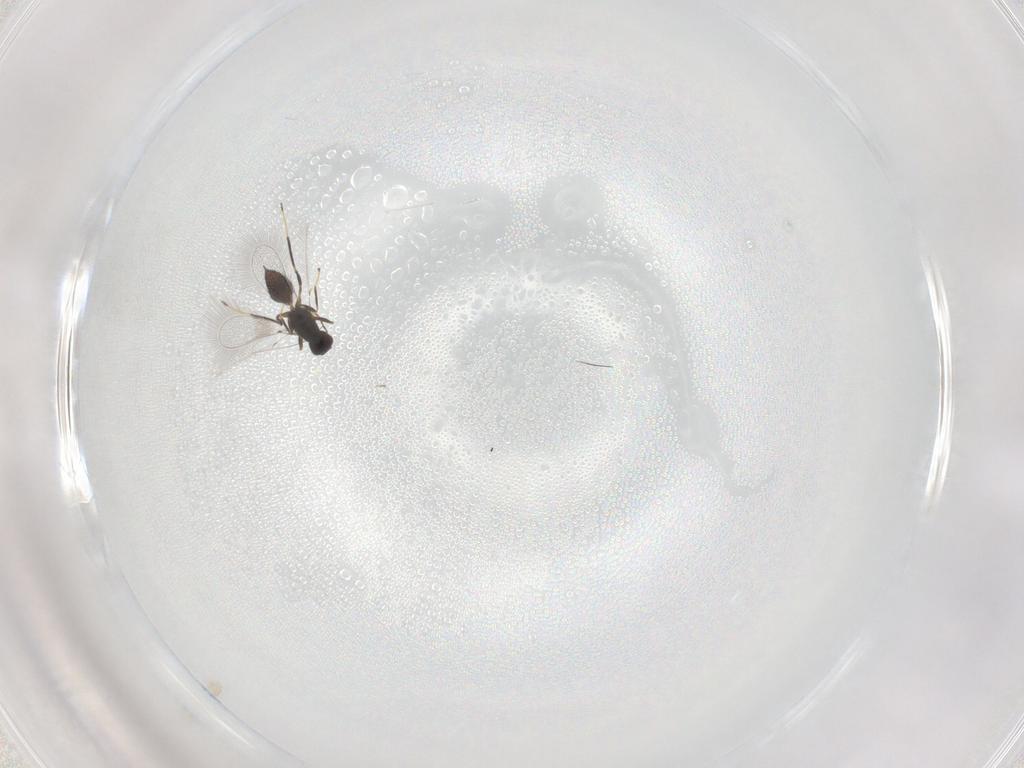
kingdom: Animalia
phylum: Arthropoda
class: Insecta
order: Hymenoptera
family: Mymaridae
